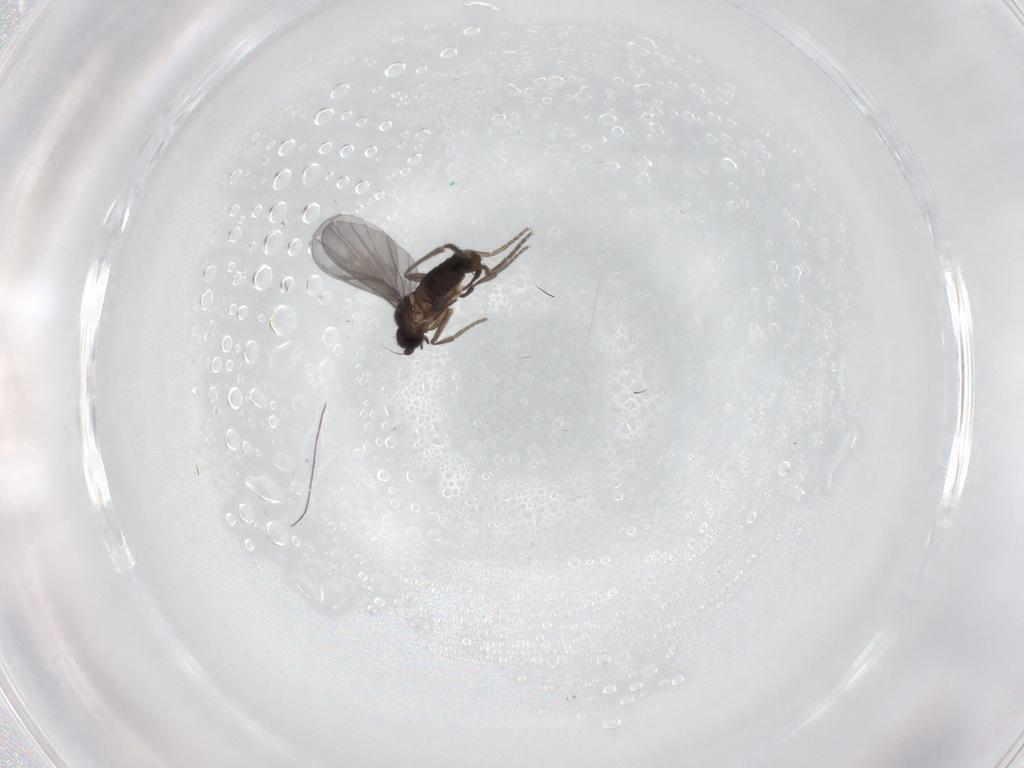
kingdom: Animalia
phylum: Arthropoda
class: Insecta
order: Diptera
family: Phoridae
